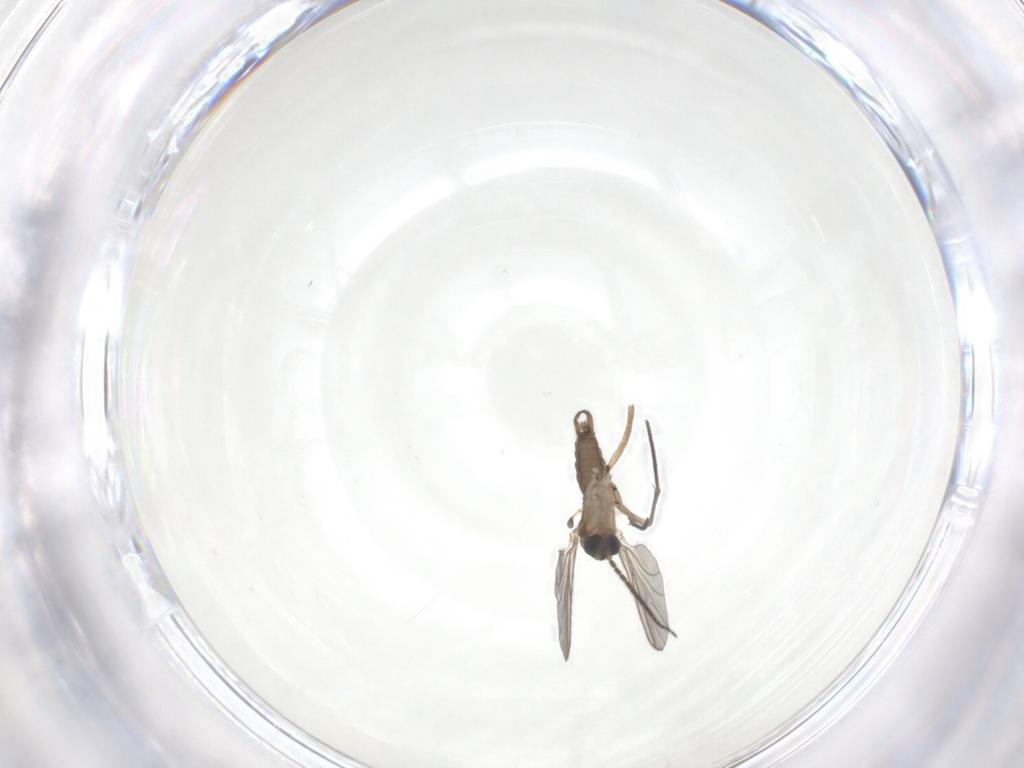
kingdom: Animalia
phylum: Arthropoda
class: Insecta
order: Diptera
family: Sciaridae
